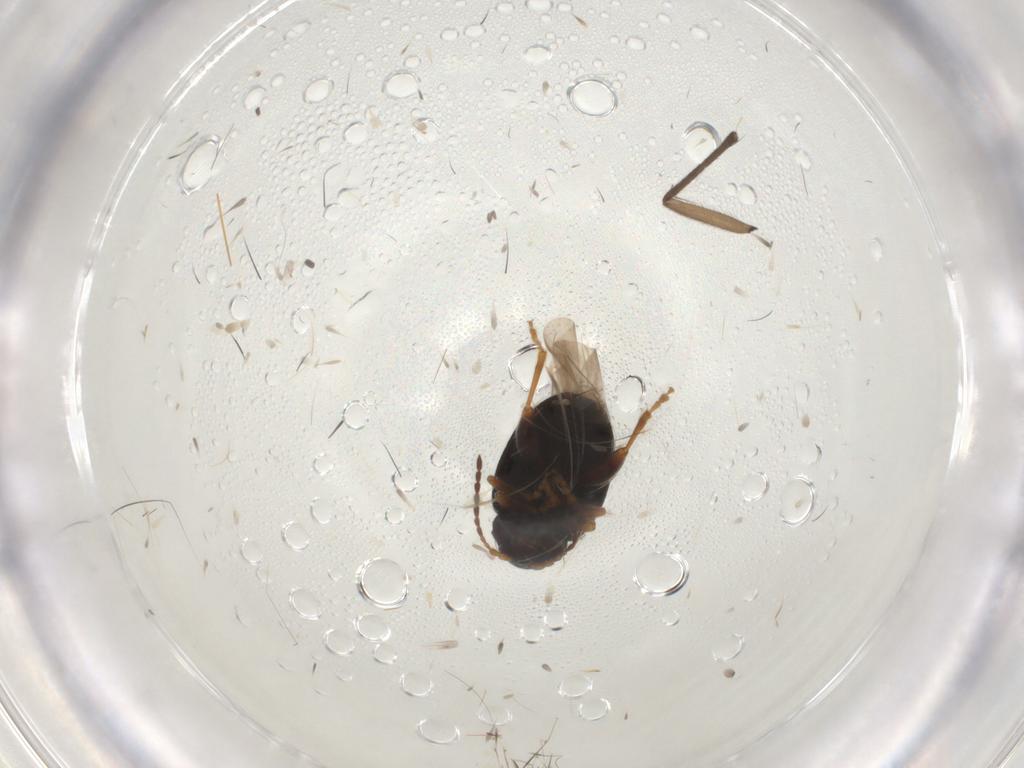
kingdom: Animalia
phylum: Arthropoda
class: Insecta
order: Coleoptera
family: Chrysomelidae
